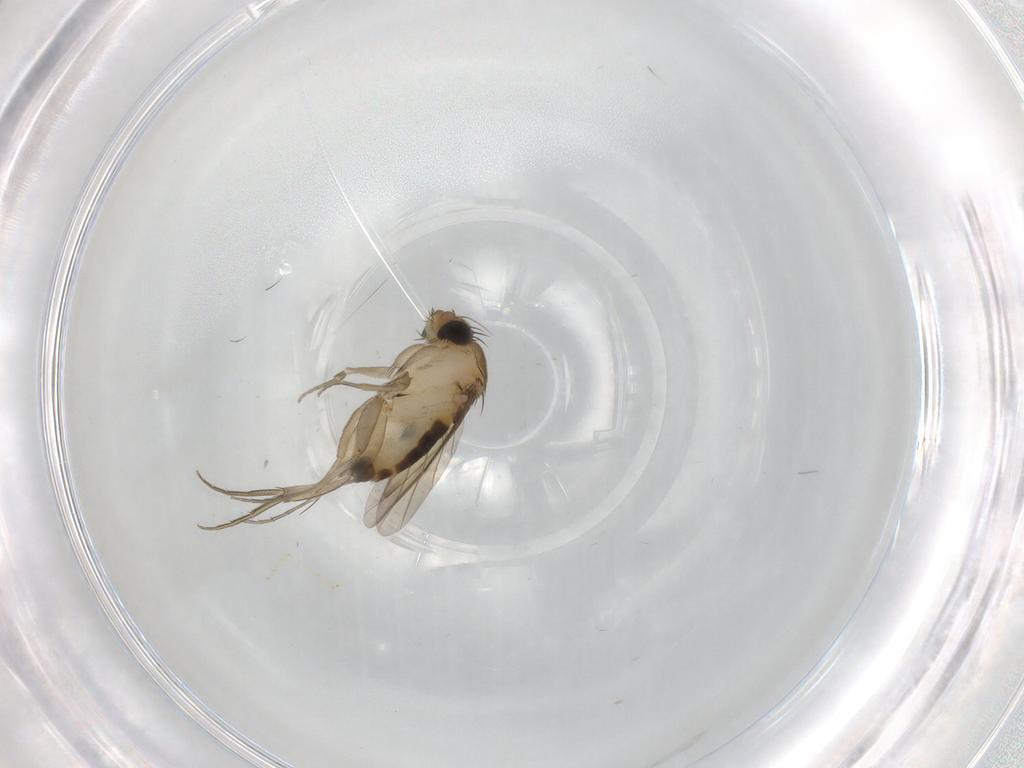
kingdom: Animalia
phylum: Arthropoda
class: Insecta
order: Diptera
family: Phoridae
